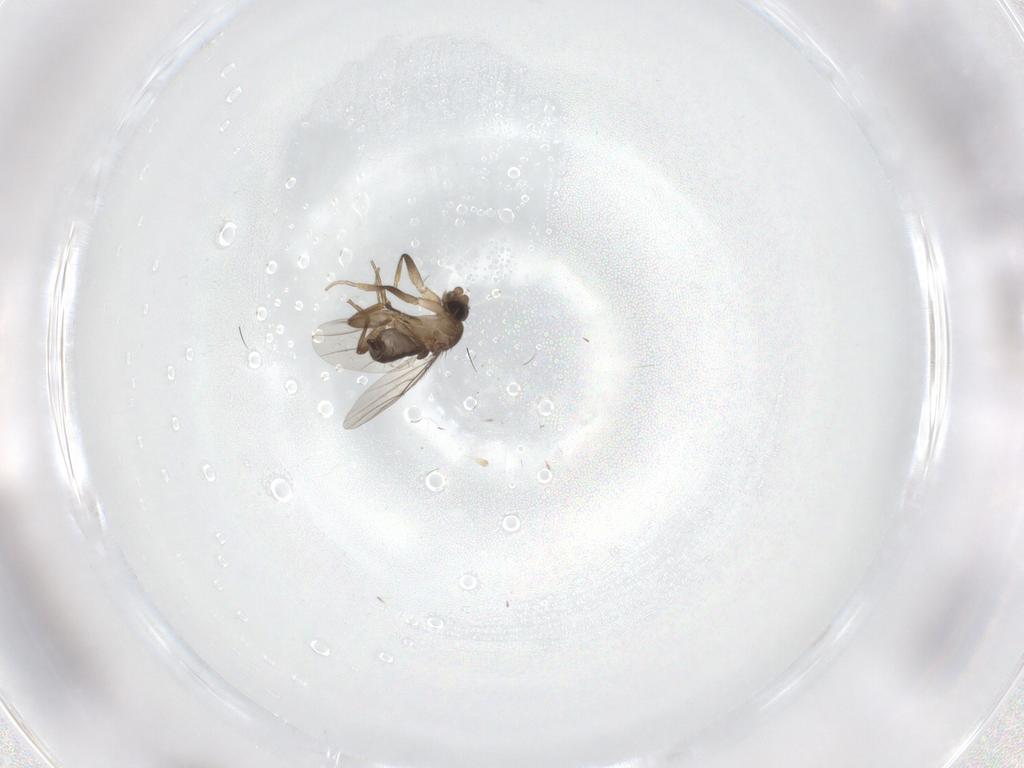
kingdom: Animalia
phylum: Arthropoda
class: Insecta
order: Diptera
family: Phoridae
